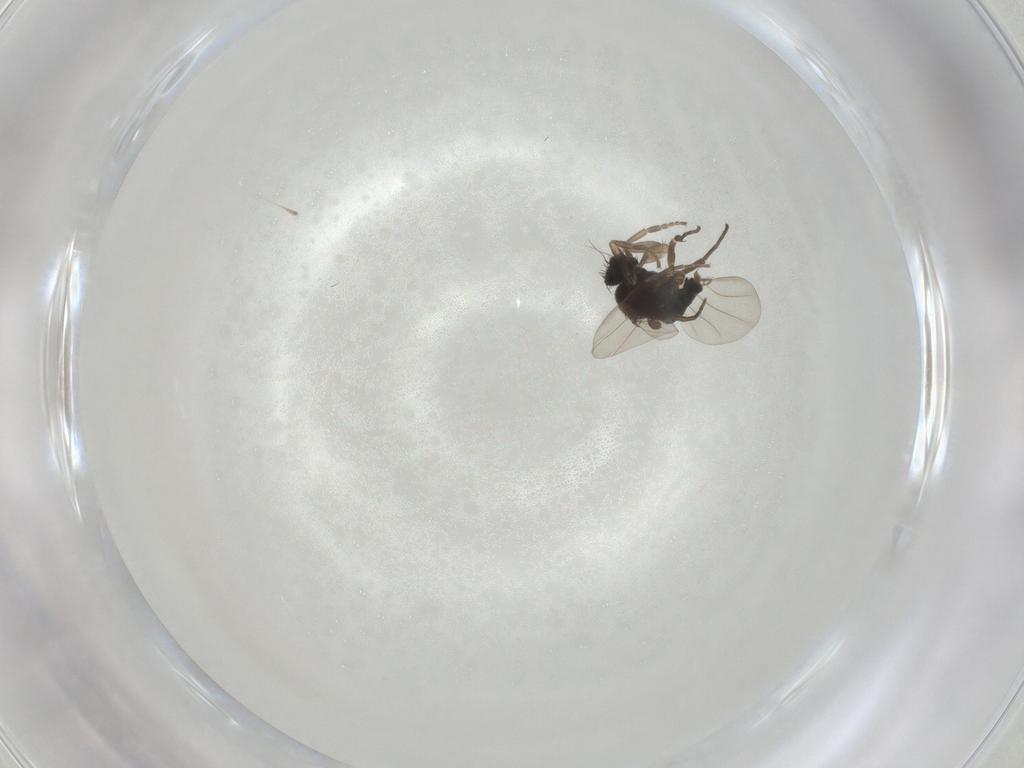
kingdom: Animalia
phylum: Arthropoda
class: Insecta
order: Diptera
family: Phoridae
